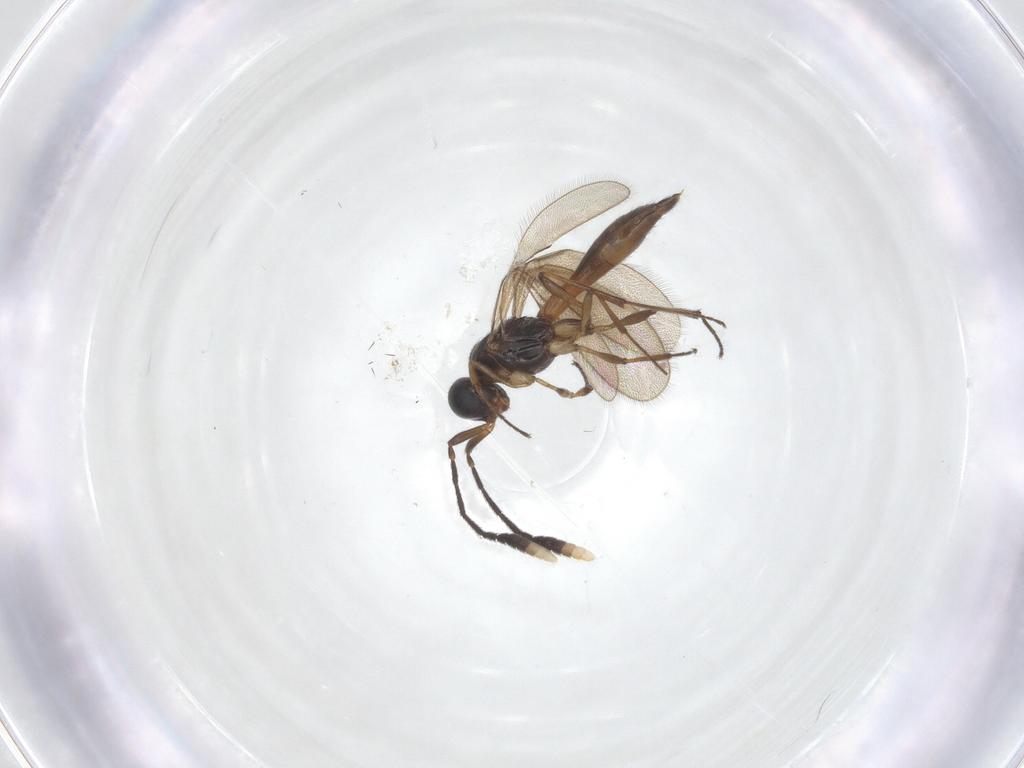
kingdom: Animalia
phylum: Arthropoda
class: Insecta
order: Hymenoptera
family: Scelionidae
